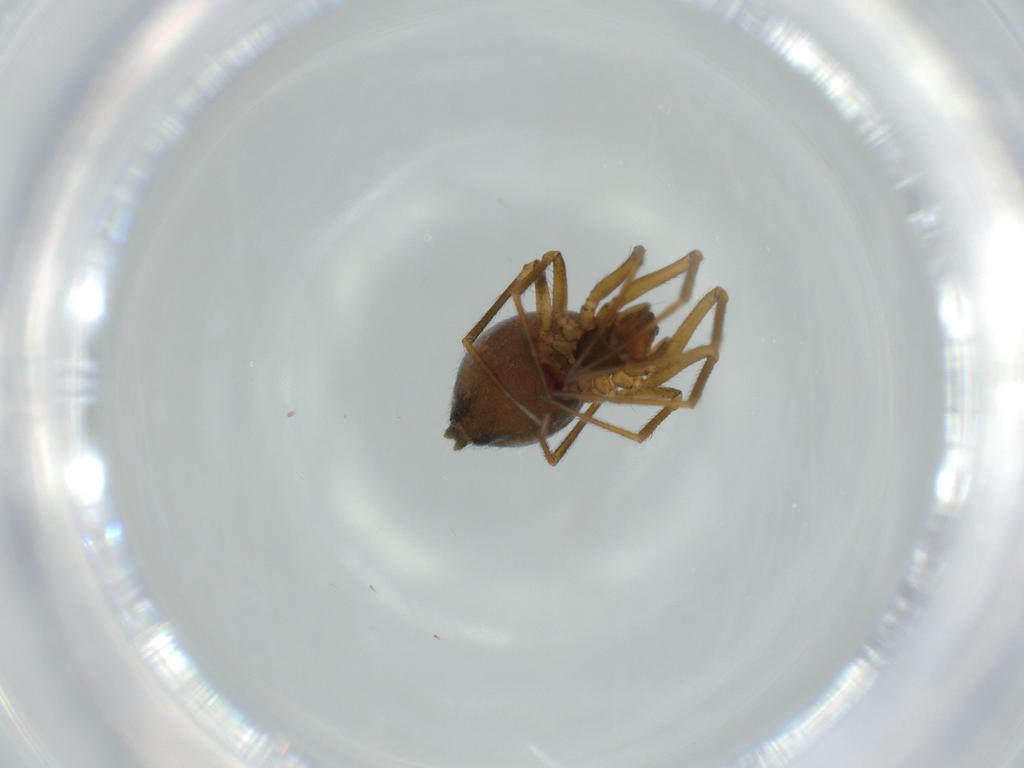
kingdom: Animalia
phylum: Arthropoda
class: Arachnida
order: Araneae
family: Linyphiidae
